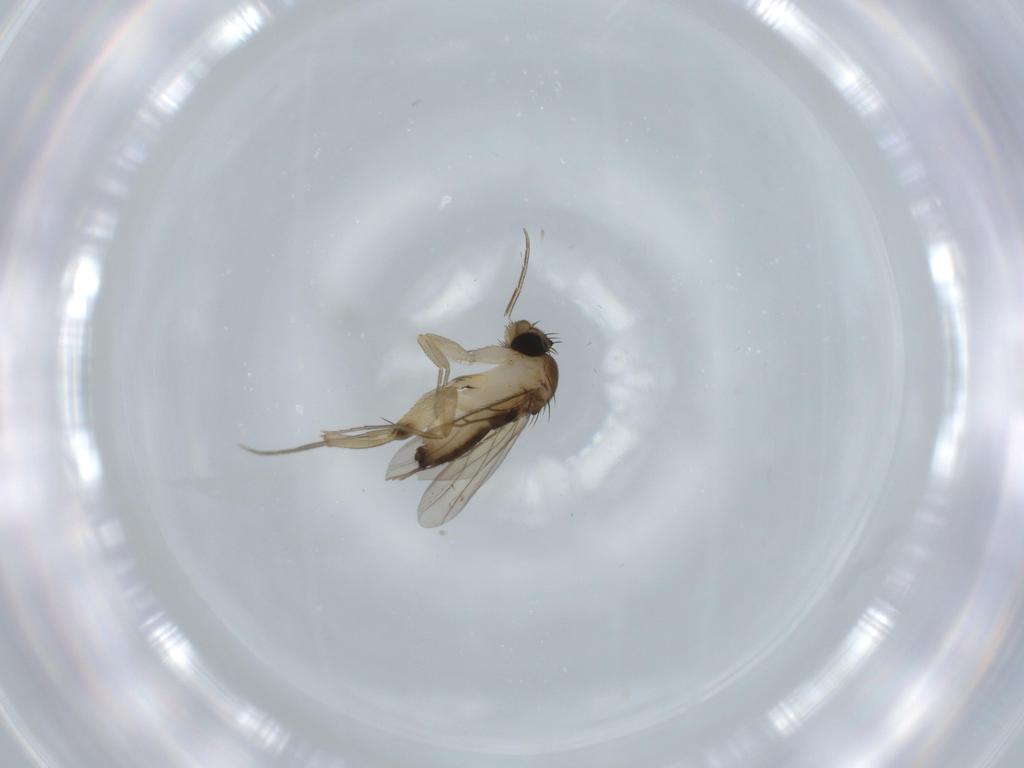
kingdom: Animalia
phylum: Arthropoda
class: Insecta
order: Diptera
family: Phoridae
